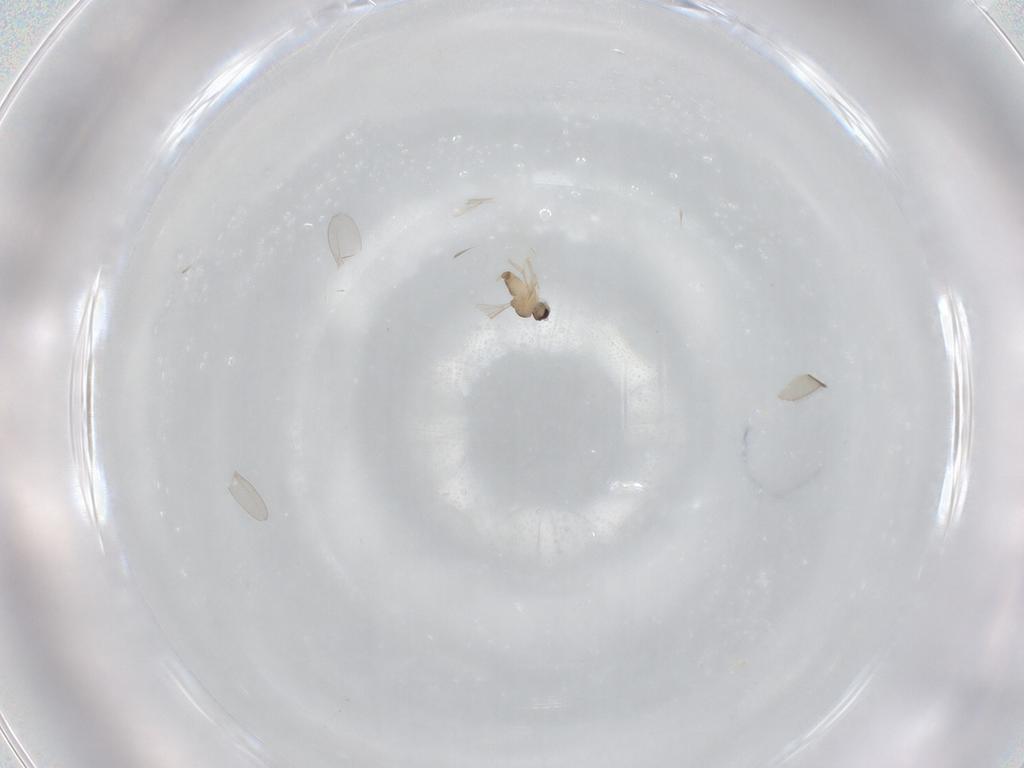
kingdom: Animalia
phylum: Arthropoda
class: Insecta
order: Diptera
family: Cecidomyiidae
